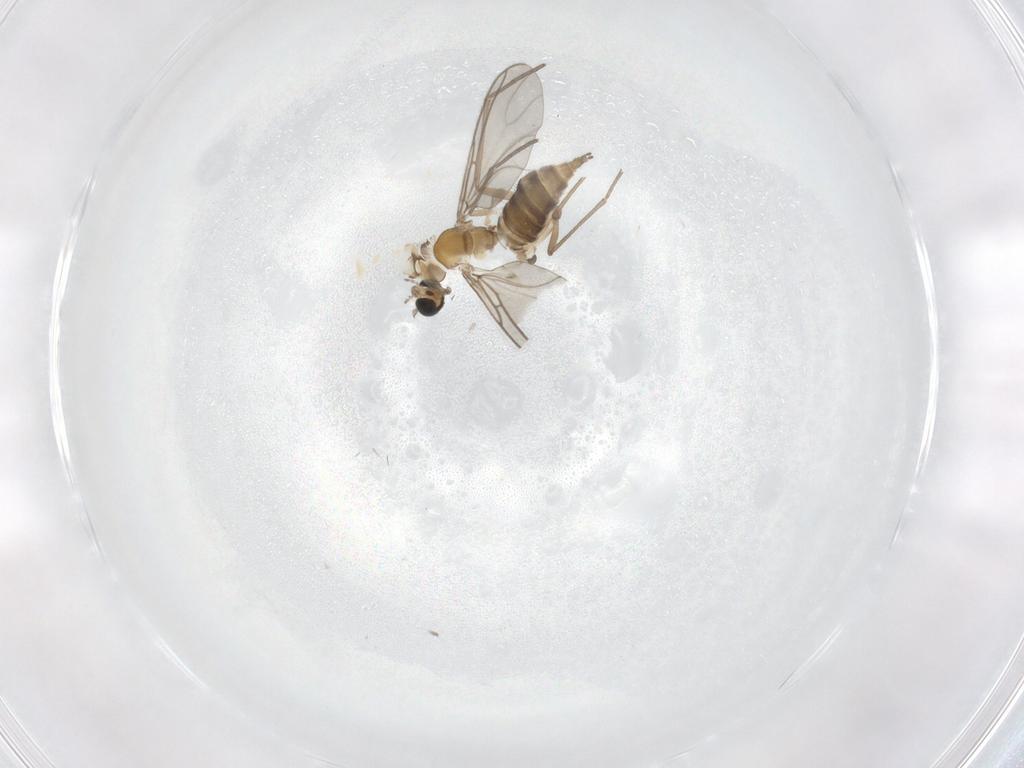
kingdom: Animalia
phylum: Arthropoda
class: Insecta
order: Diptera
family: Sciaridae
